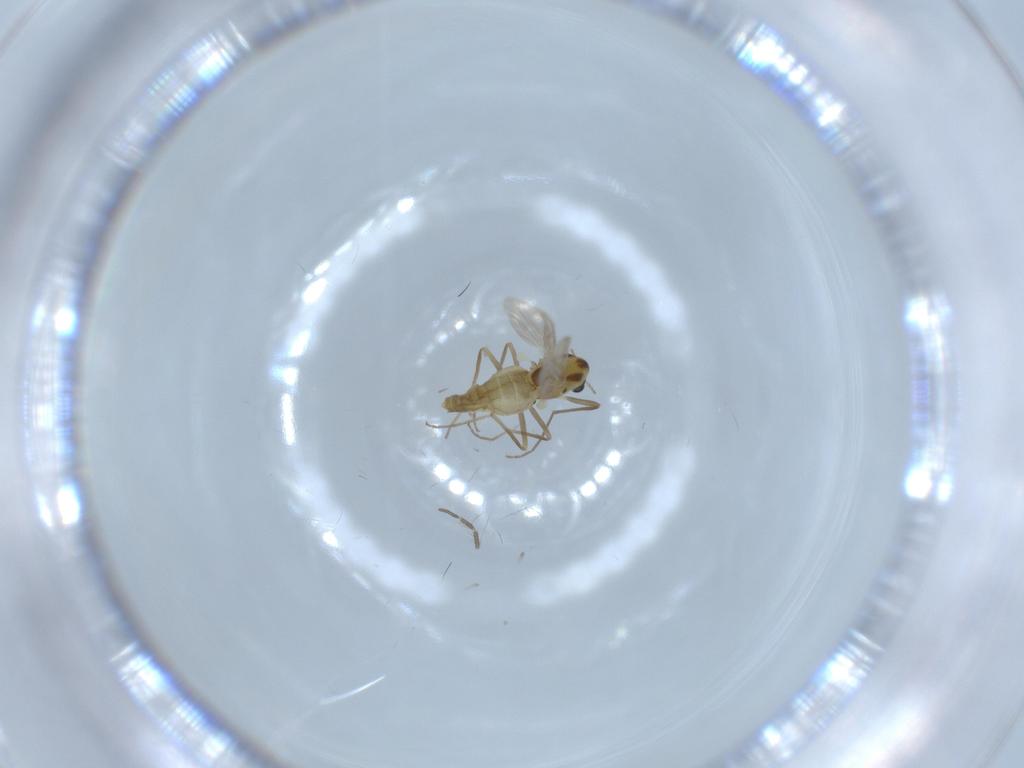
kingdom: Animalia
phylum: Arthropoda
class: Insecta
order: Diptera
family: Chironomidae
